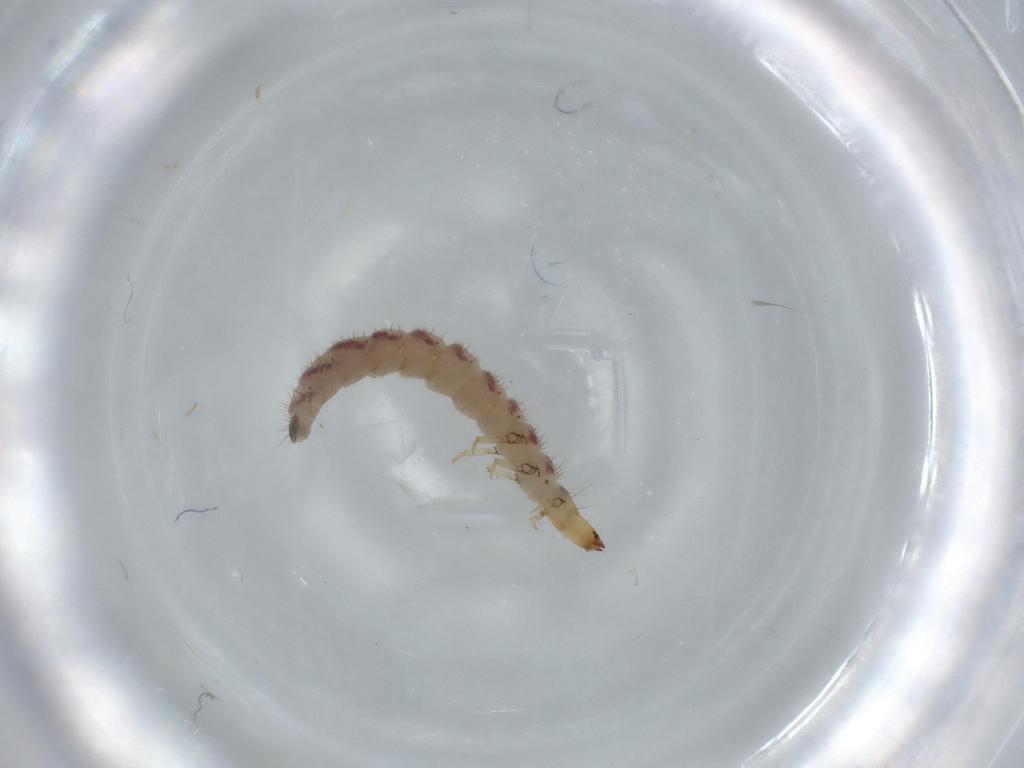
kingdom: Animalia
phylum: Arthropoda
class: Insecta
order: Coleoptera
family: Cleridae
